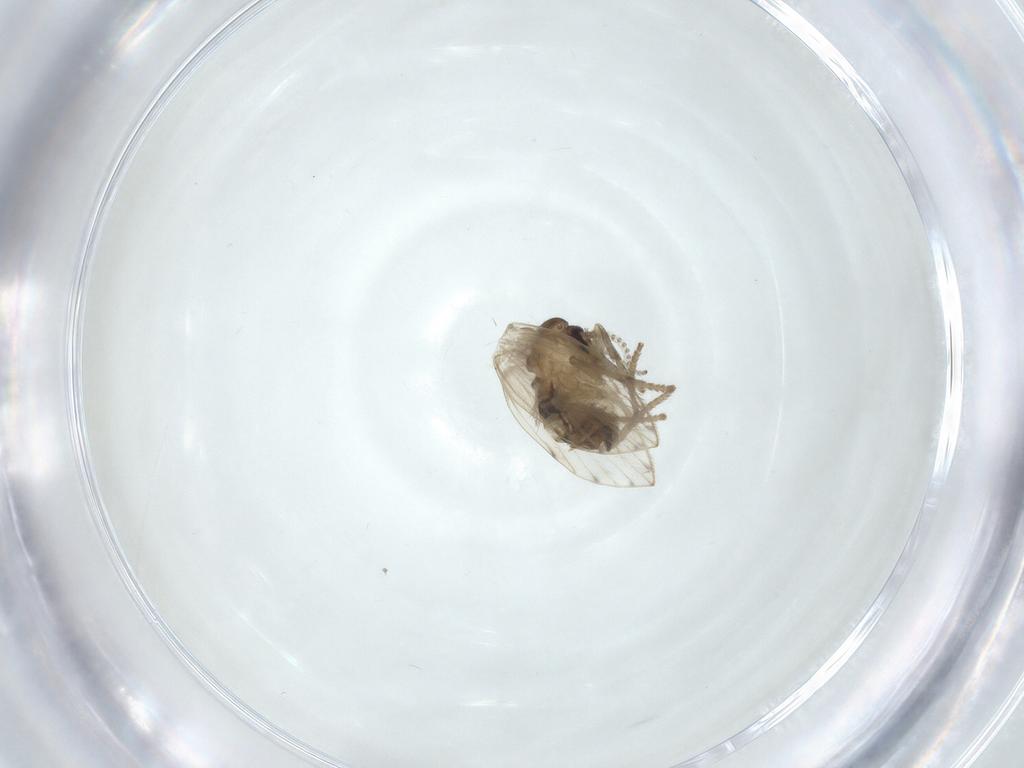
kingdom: Animalia
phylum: Arthropoda
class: Insecta
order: Diptera
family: Psychodidae
